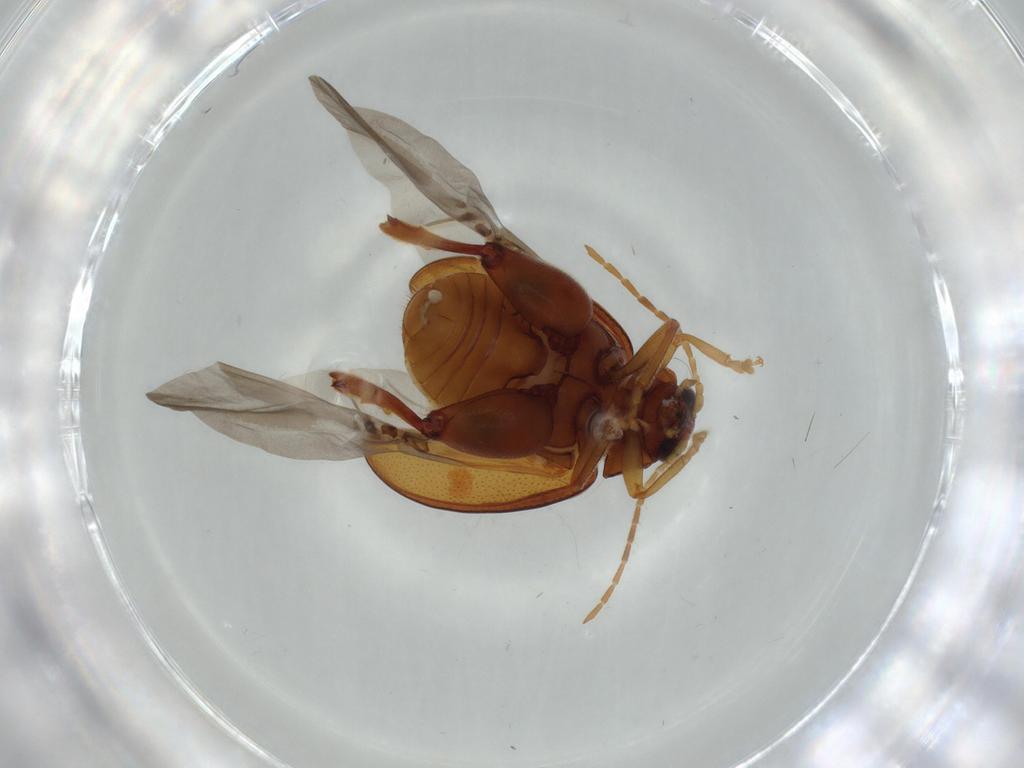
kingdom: Animalia
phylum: Arthropoda
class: Insecta
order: Coleoptera
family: Chrysomelidae
